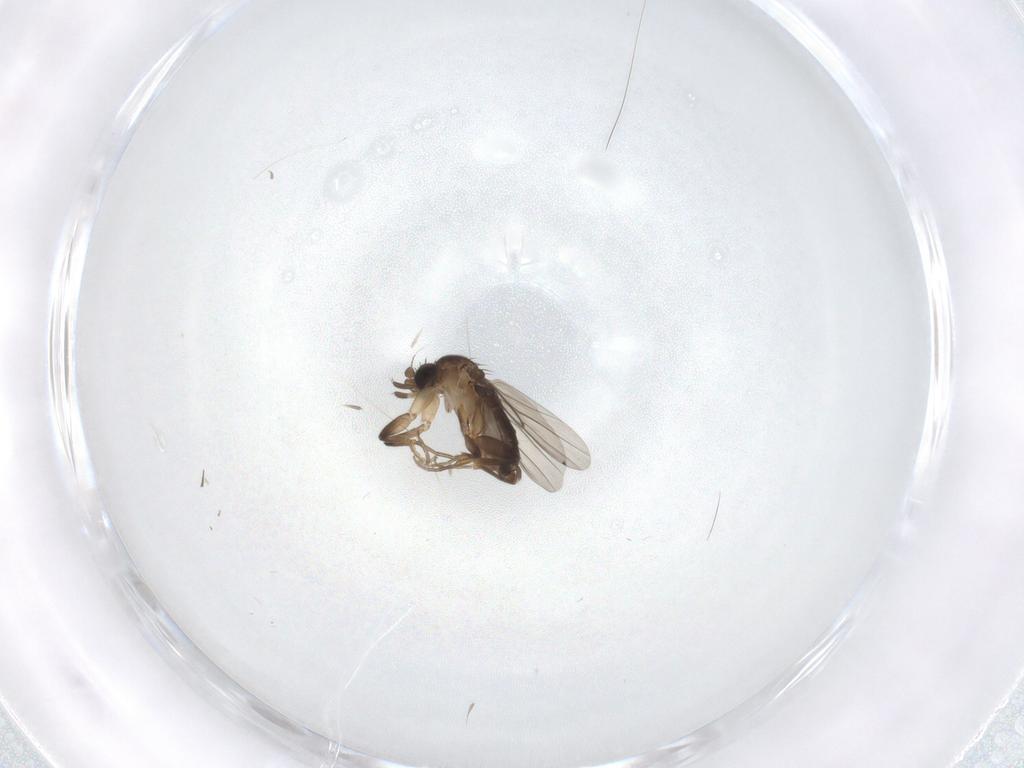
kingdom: Animalia
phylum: Arthropoda
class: Insecta
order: Diptera
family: Phoridae
